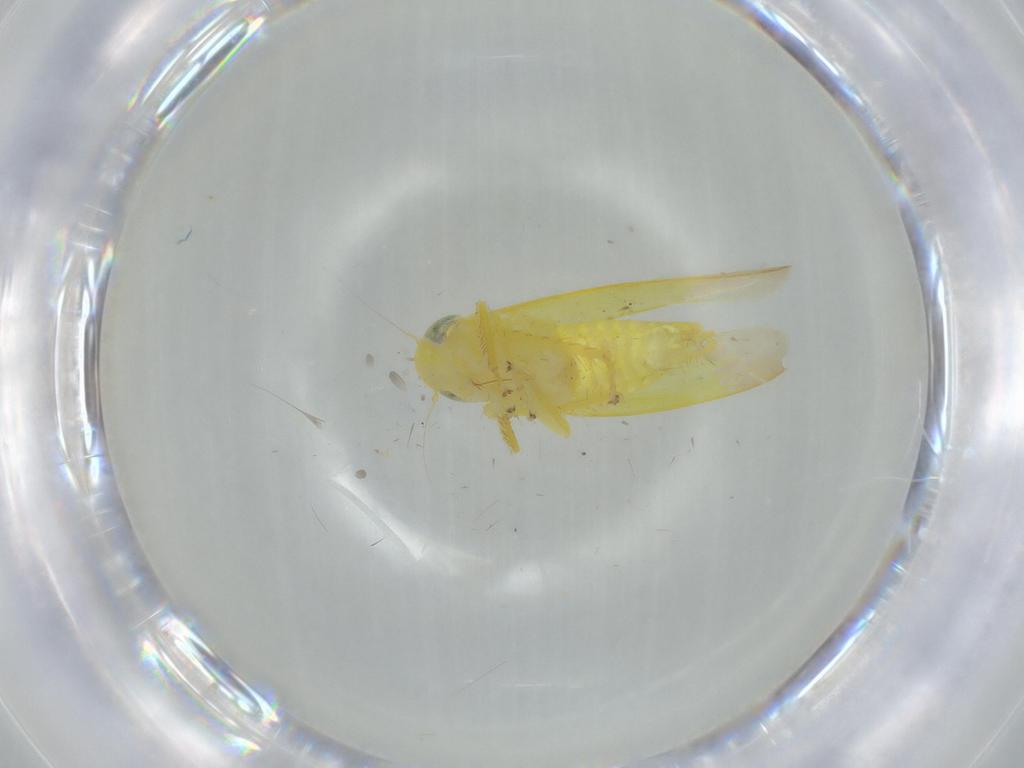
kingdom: Animalia
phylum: Arthropoda
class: Insecta
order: Hemiptera
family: Cicadellidae
